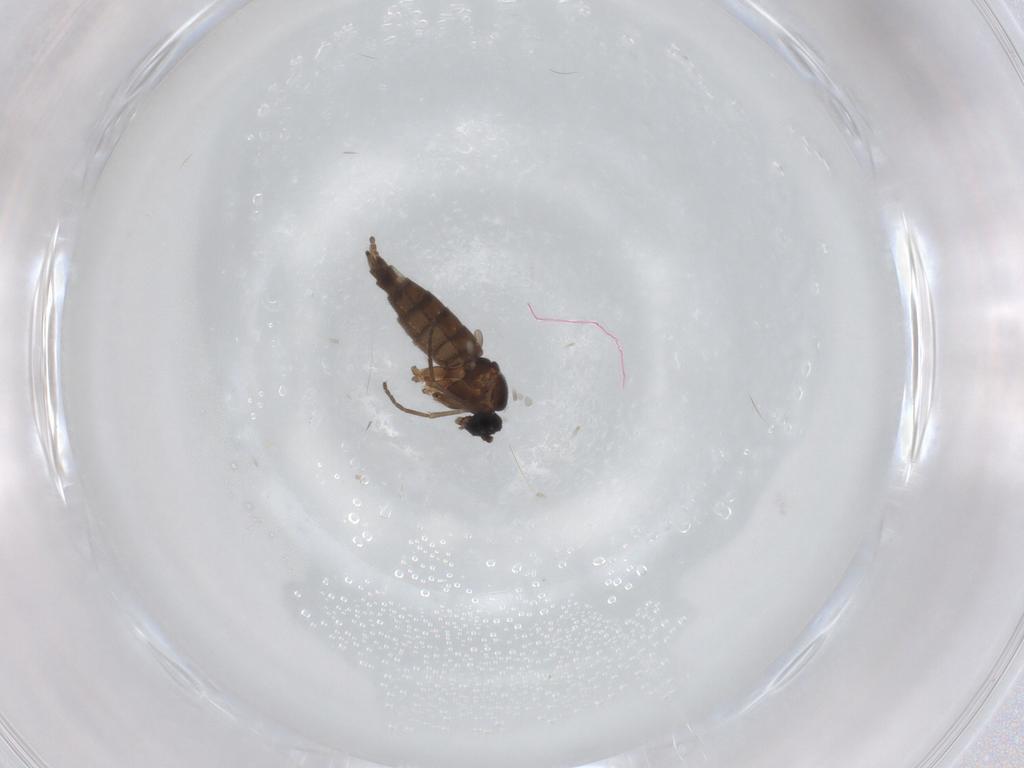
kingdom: Animalia
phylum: Arthropoda
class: Insecta
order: Diptera
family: Sciaridae
